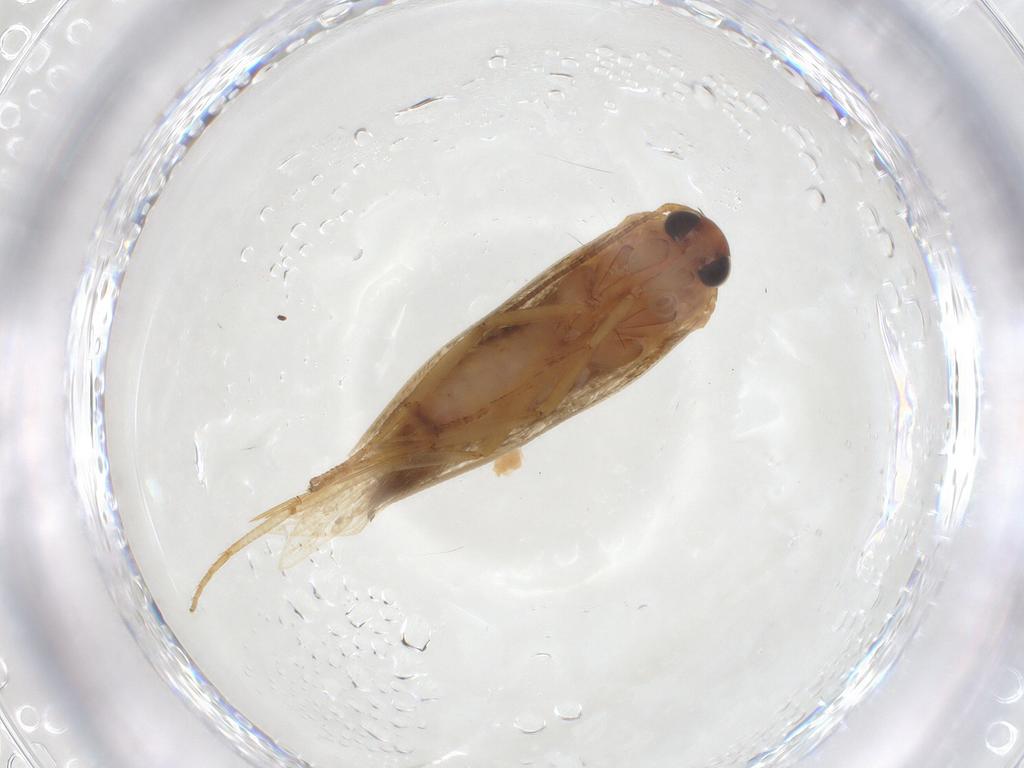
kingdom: Animalia
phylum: Arthropoda
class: Insecta
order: Lepidoptera
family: Blastobasidae
